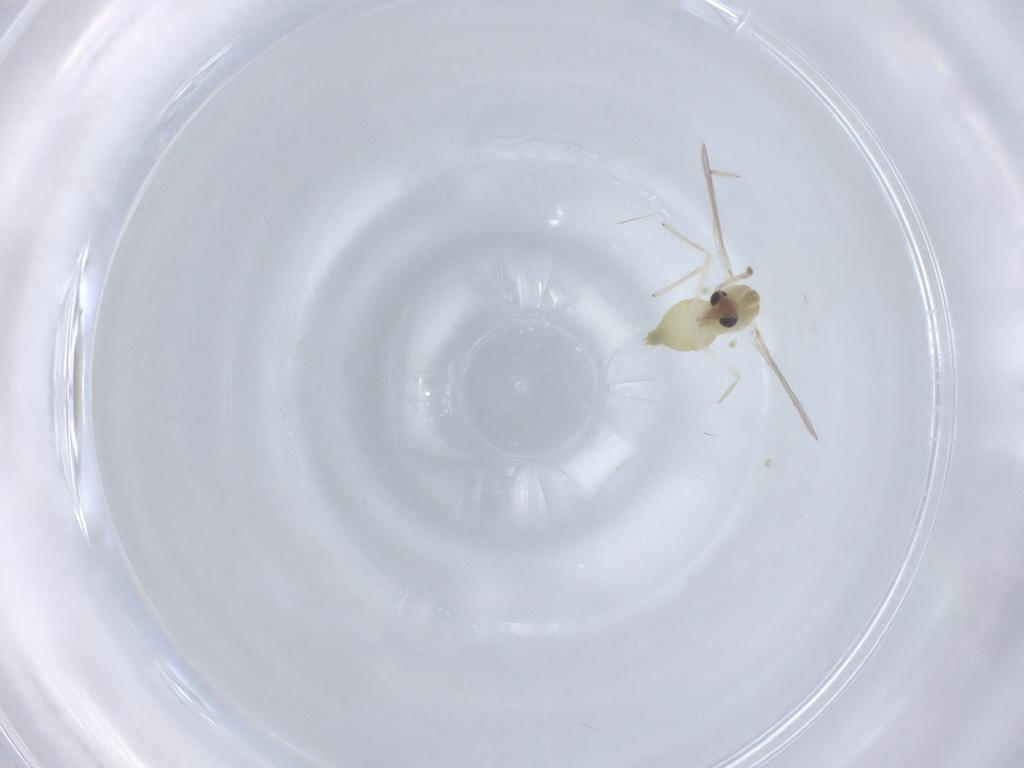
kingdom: Animalia
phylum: Arthropoda
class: Insecta
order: Diptera
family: Chironomidae
